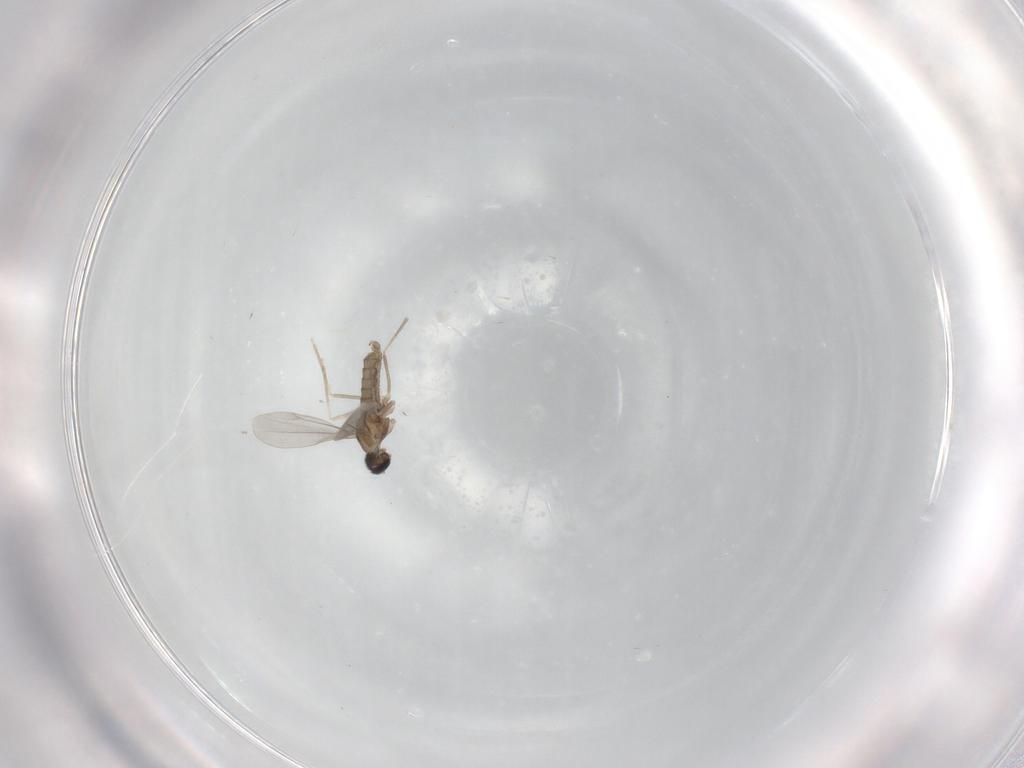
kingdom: Animalia
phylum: Arthropoda
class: Insecta
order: Diptera
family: Cecidomyiidae
